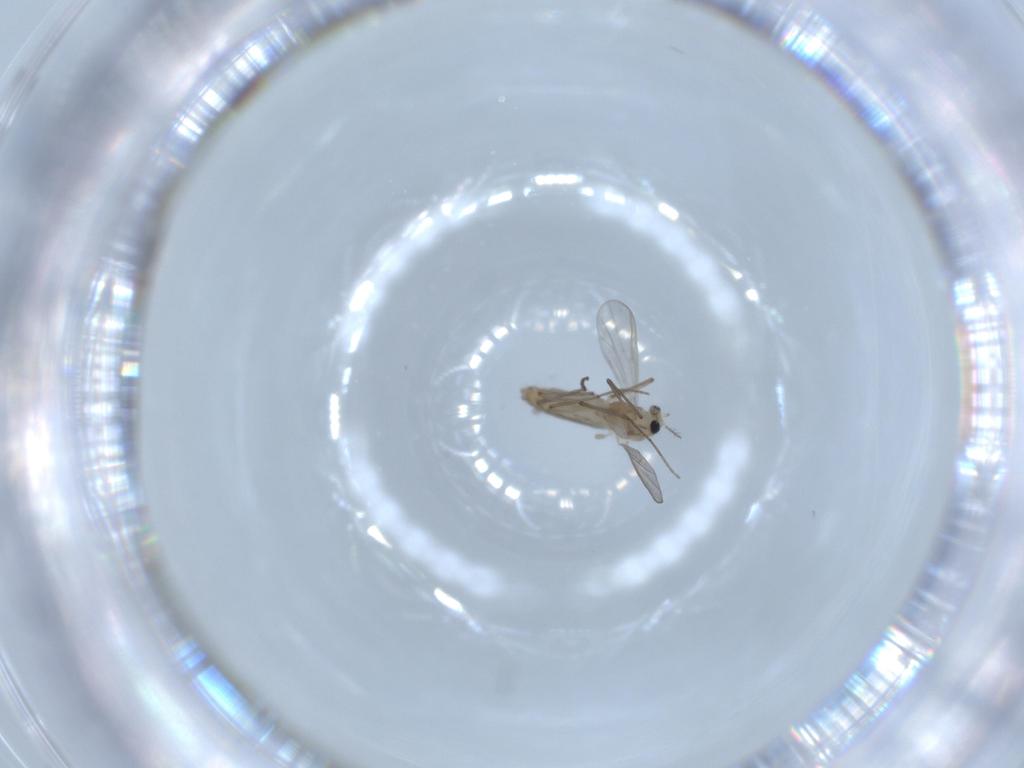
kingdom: Animalia
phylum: Arthropoda
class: Insecta
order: Diptera
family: Chironomidae
